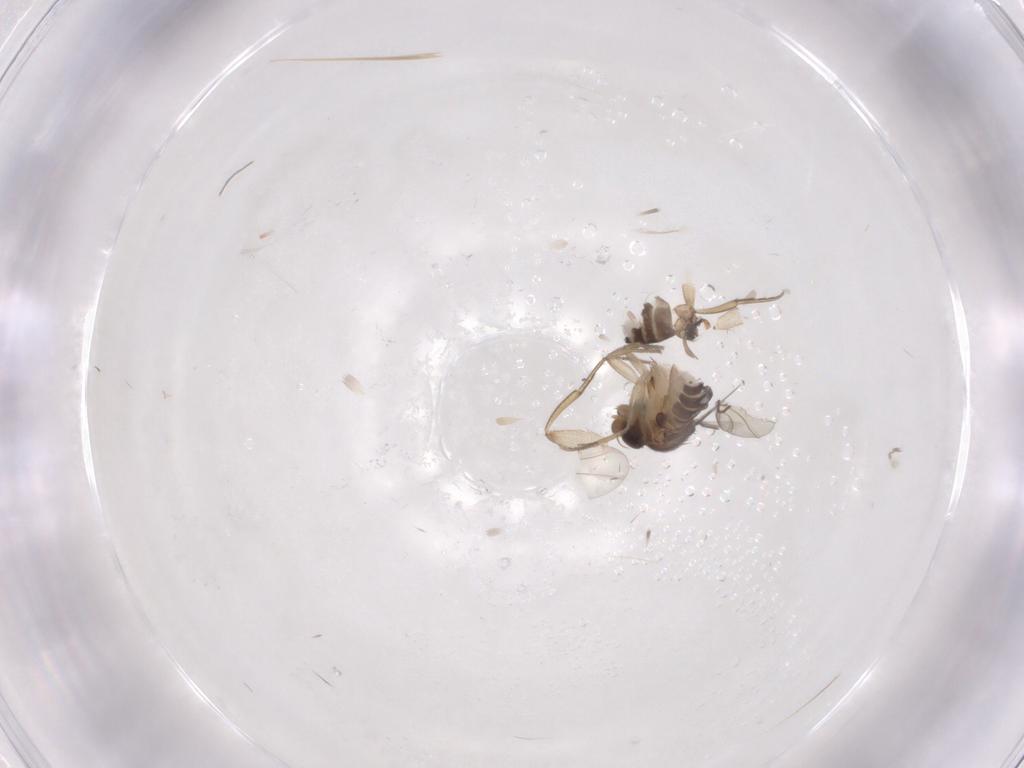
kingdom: Animalia
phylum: Arthropoda
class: Insecta
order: Diptera
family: Phoridae
